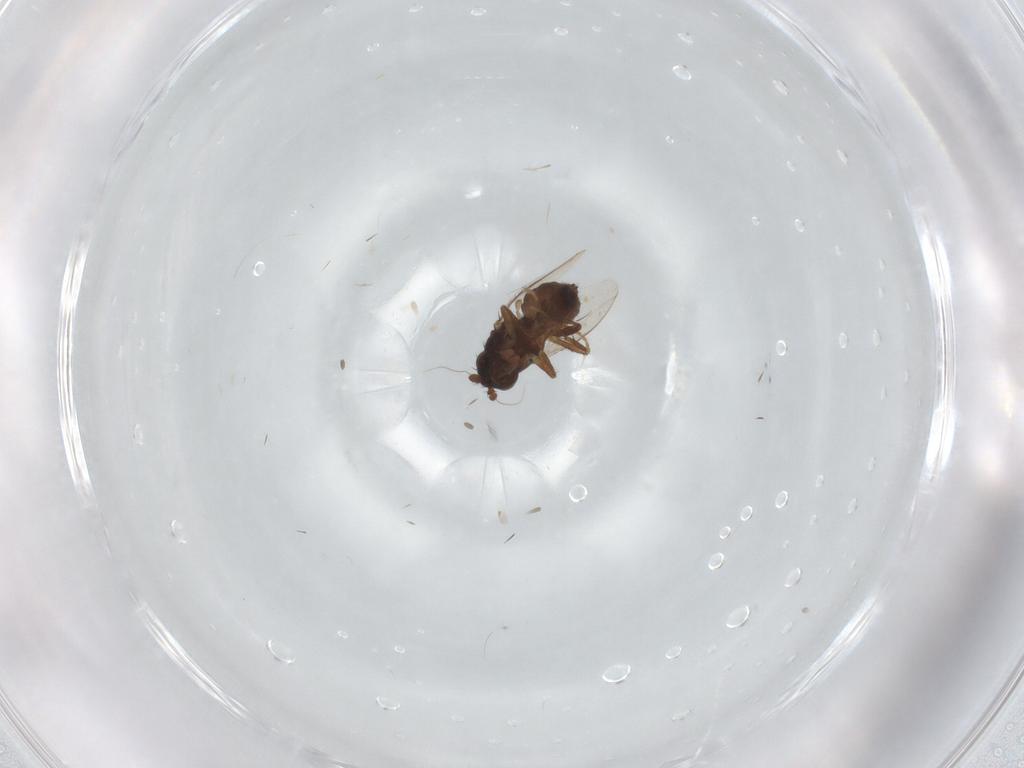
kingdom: Animalia
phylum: Arthropoda
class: Insecta
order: Diptera
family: Sphaeroceridae
